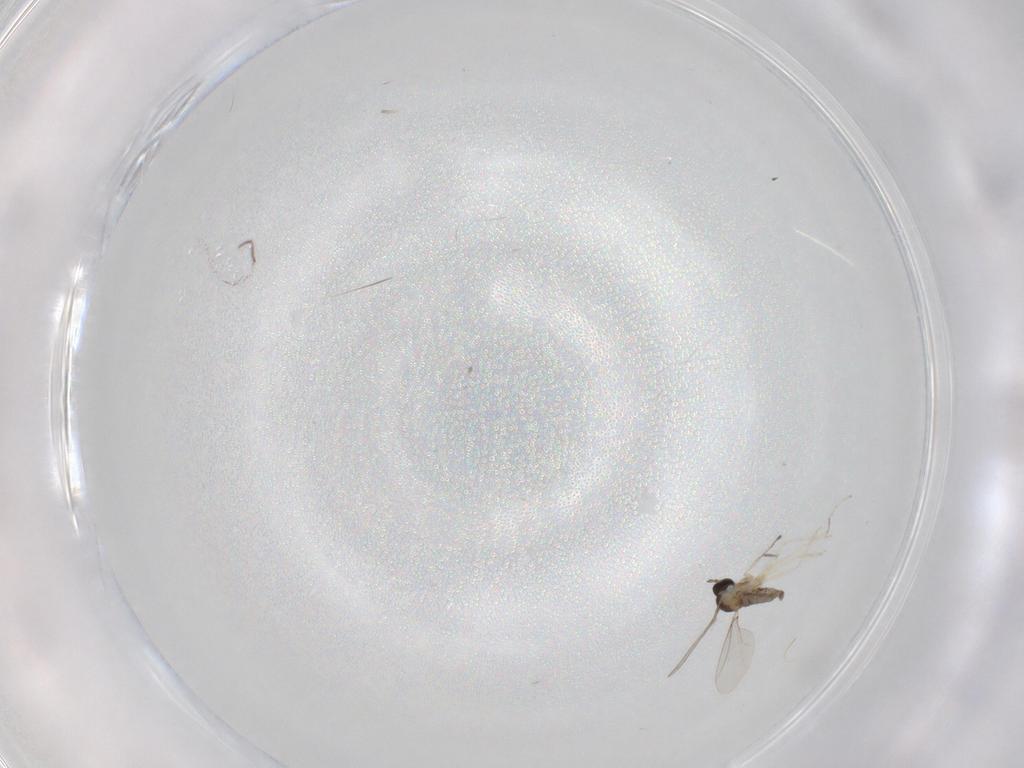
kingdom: Animalia
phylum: Arthropoda
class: Insecta
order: Diptera
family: Cecidomyiidae
